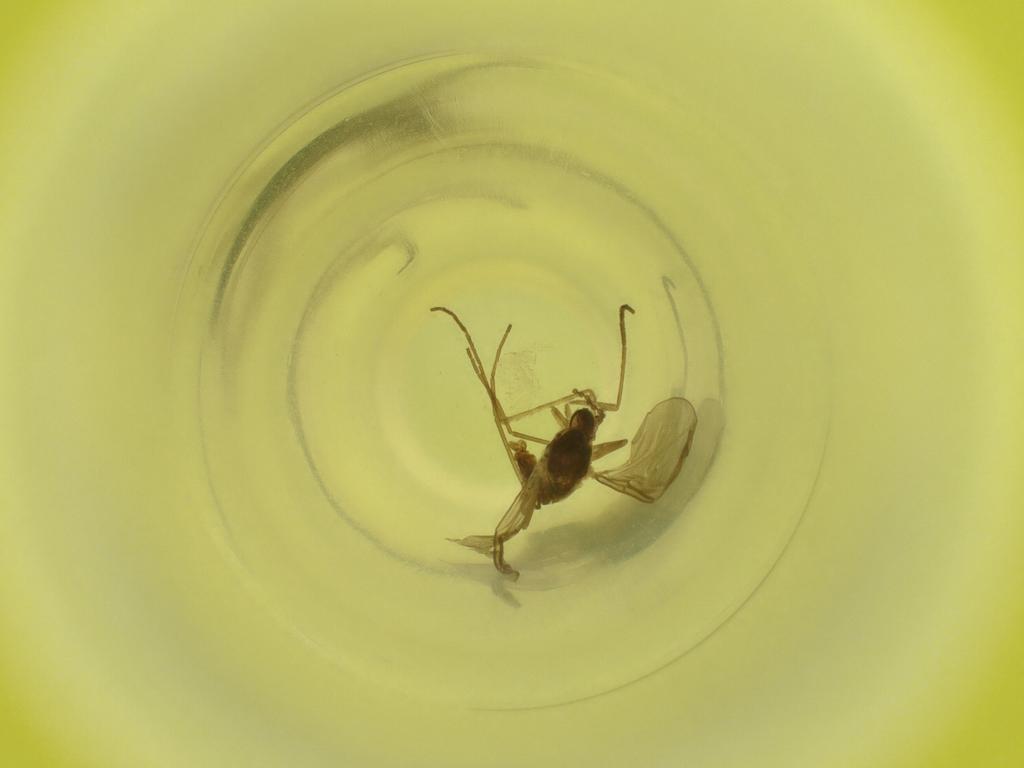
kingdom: Animalia
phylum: Arthropoda
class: Insecta
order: Diptera
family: Cecidomyiidae
